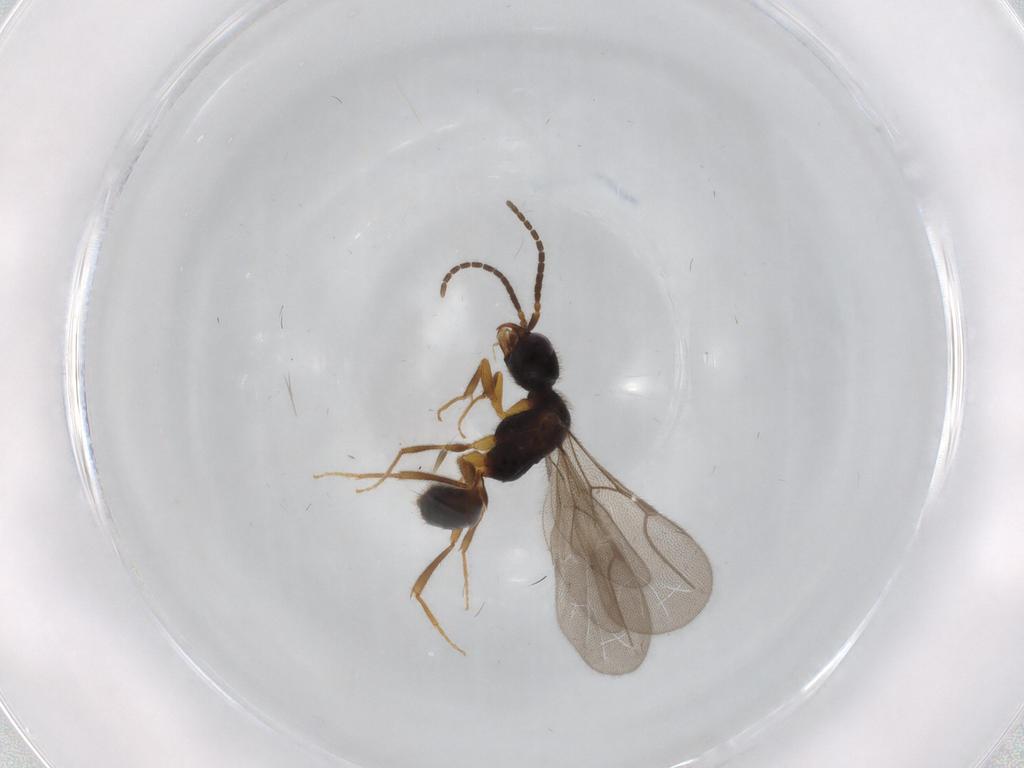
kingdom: Animalia
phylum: Arthropoda
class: Insecta
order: Hymenoptera
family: Bethylidae
